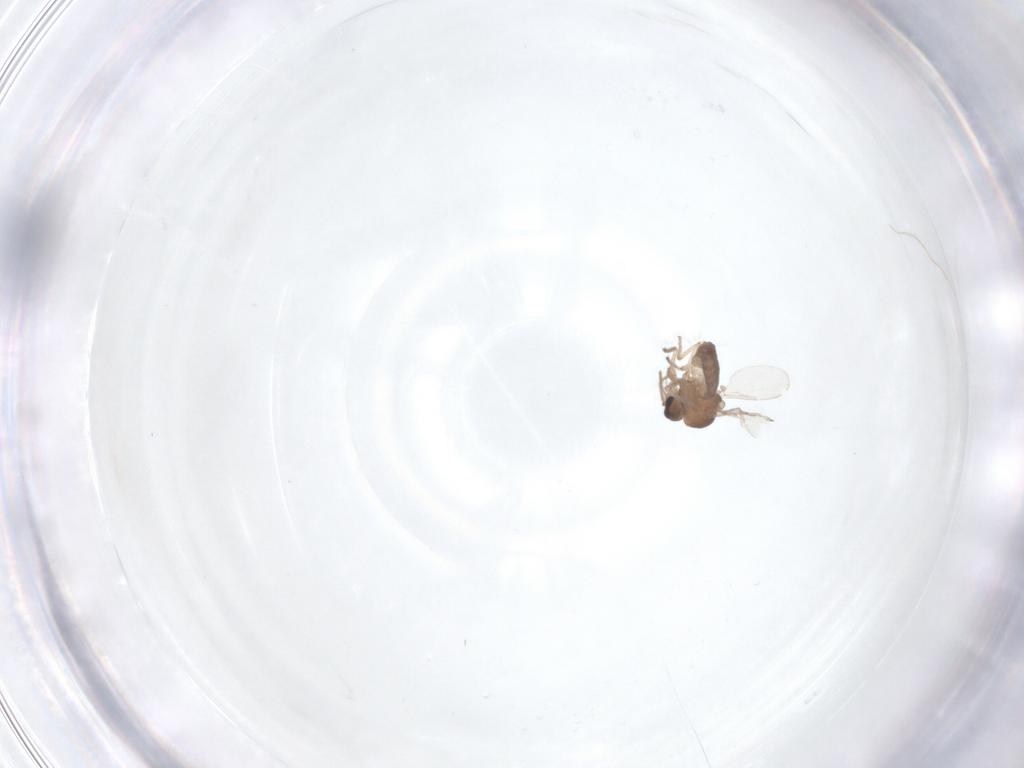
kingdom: Animalia
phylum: Arthropoda
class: Insecta
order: Diptera
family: Ceratopogonidae
